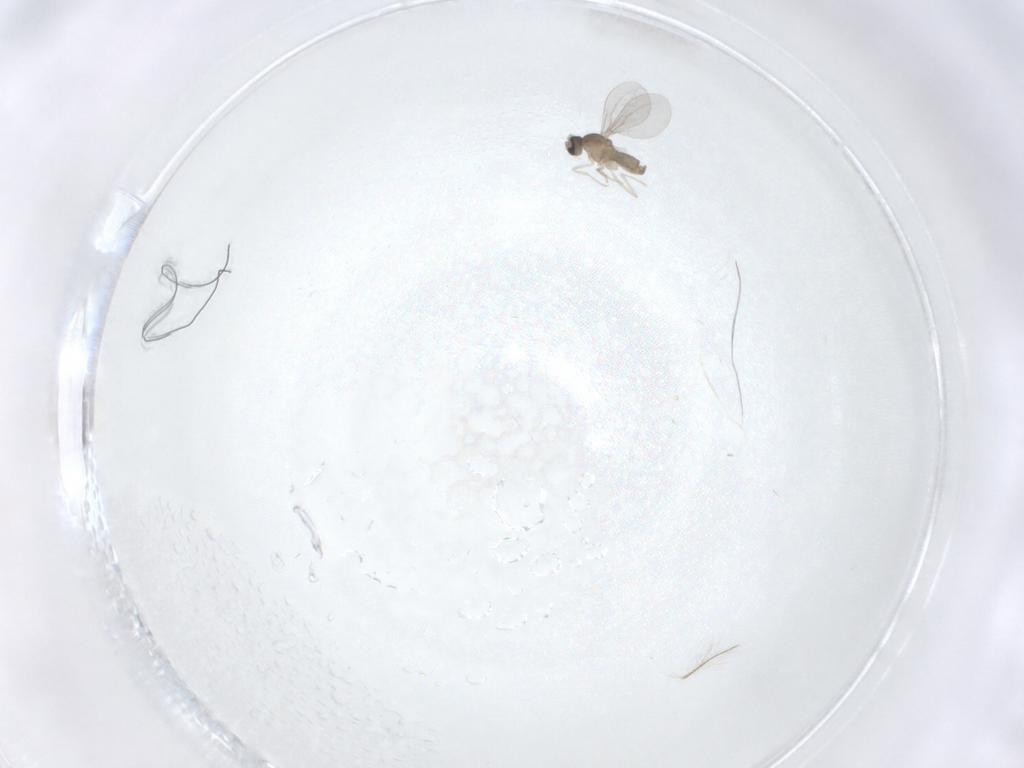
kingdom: Animalia
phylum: Arthropoda
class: Insecta
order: Diptera
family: Chironomidae
